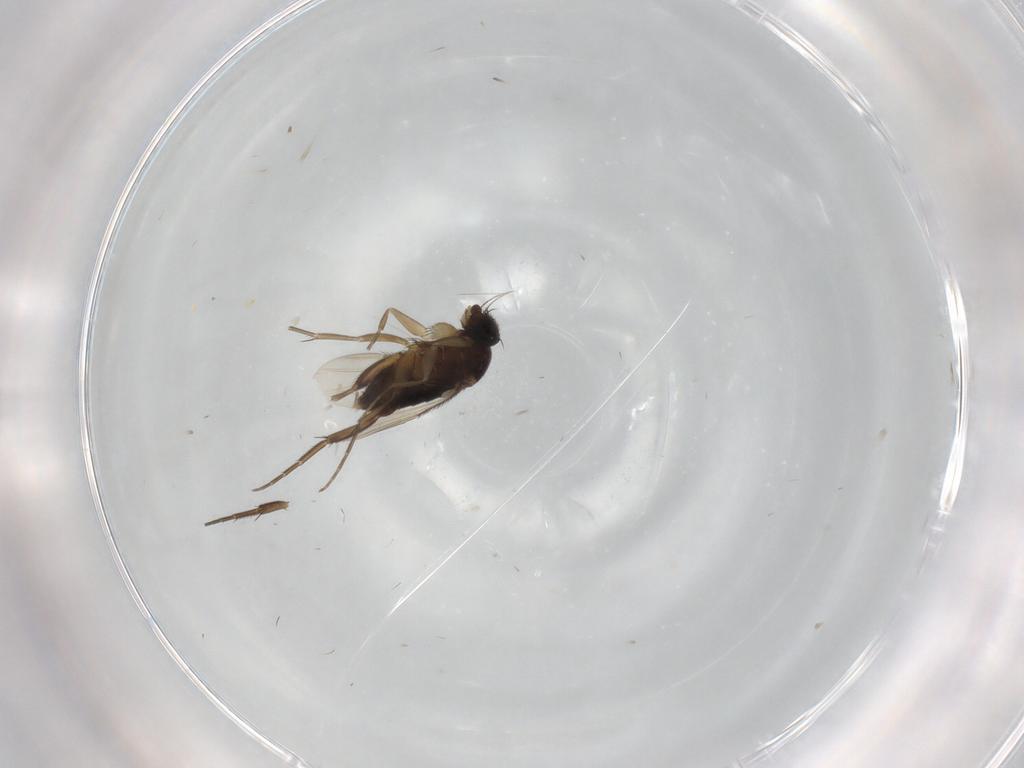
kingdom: Animalia
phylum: Arthropoda
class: Insecta
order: Diptera
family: Phoridae
